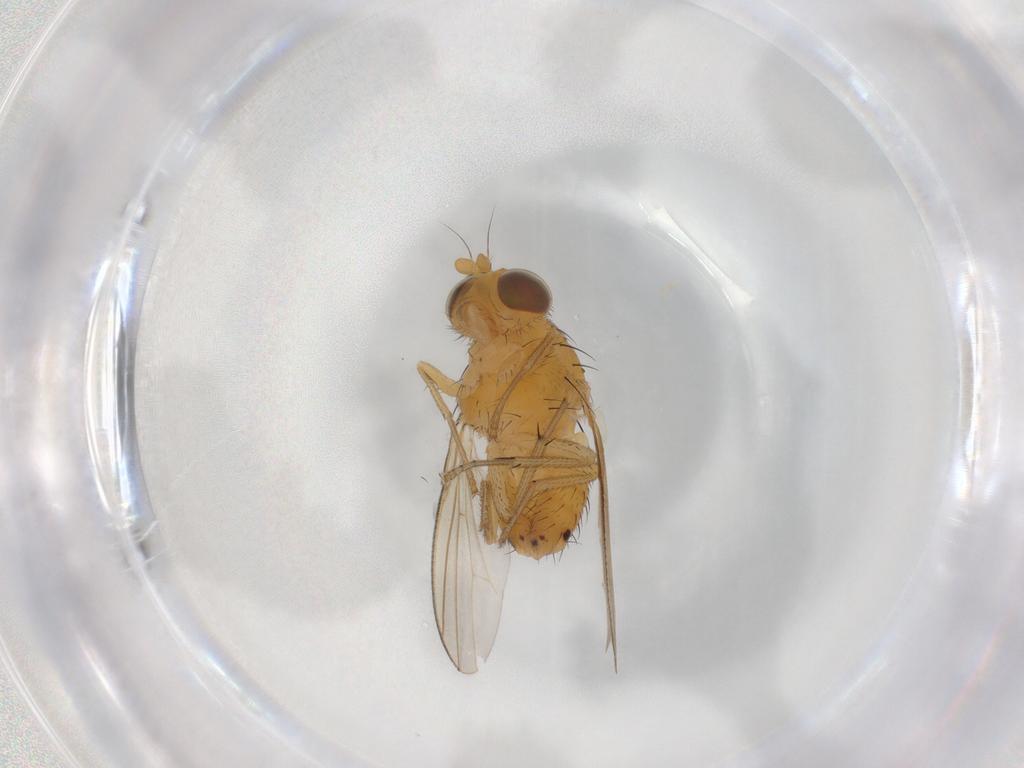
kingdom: Animalia
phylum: Arthropoda
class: Insecta
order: Diptera
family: Lauxaniidae
